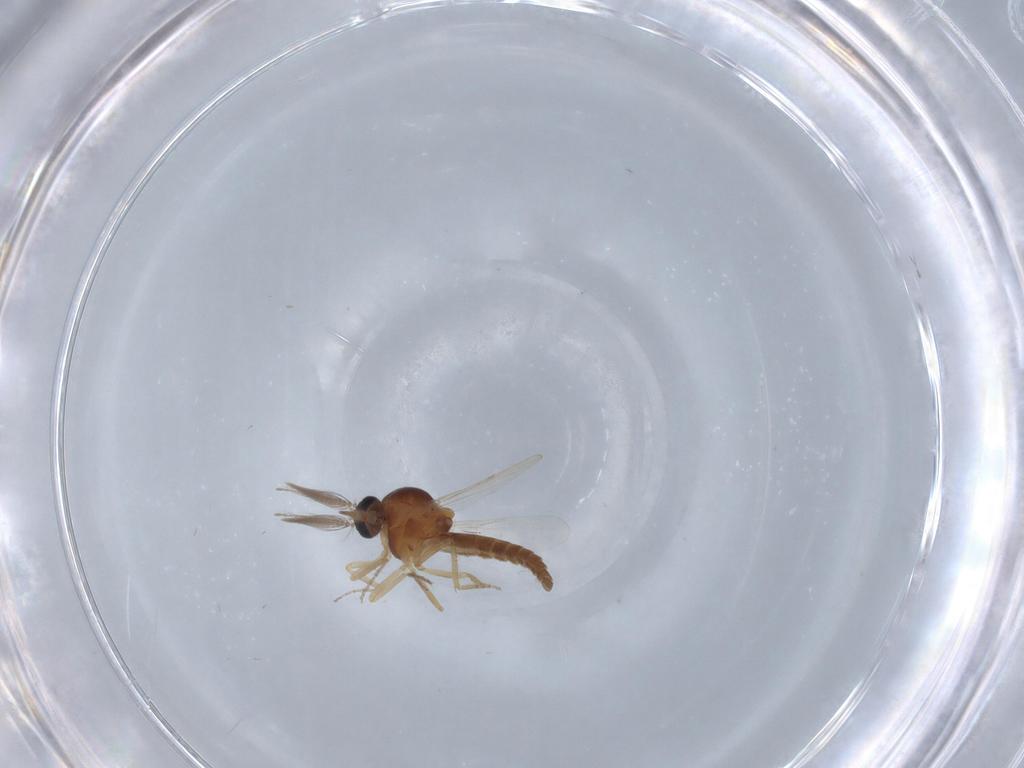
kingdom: Animalia
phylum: Arthropoda
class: Insecta
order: Diptera
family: Ceratopogonidae
